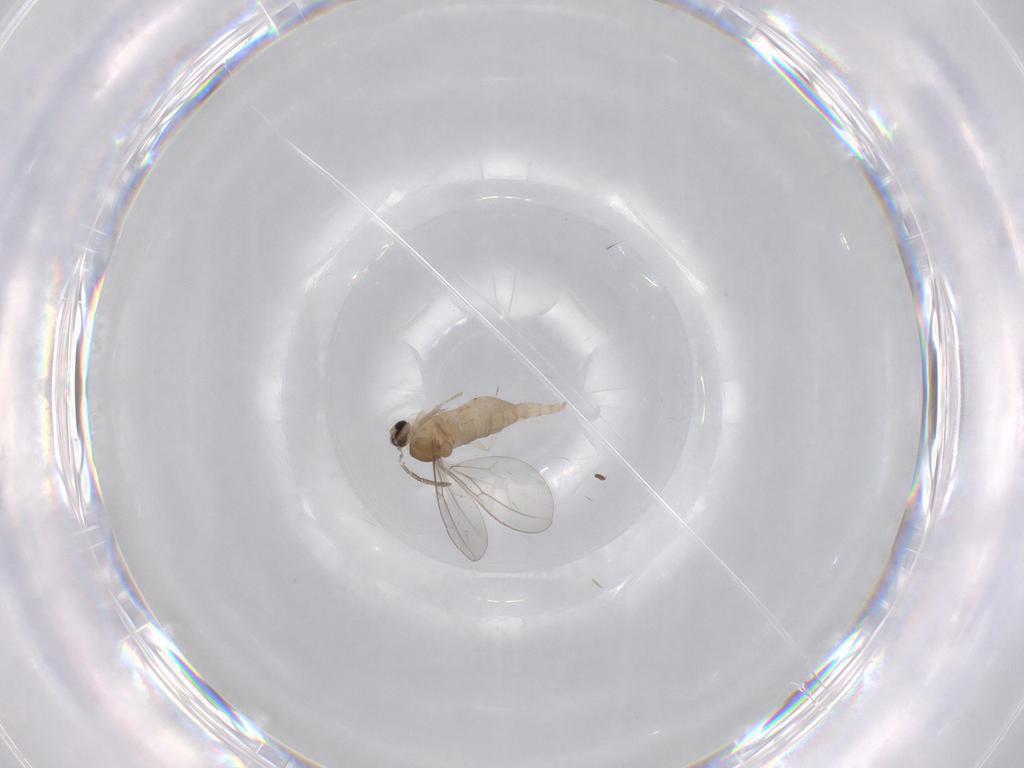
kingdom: Animalia
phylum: Arthropoda
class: Insecta
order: Diptera
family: Cecidomyiidae
